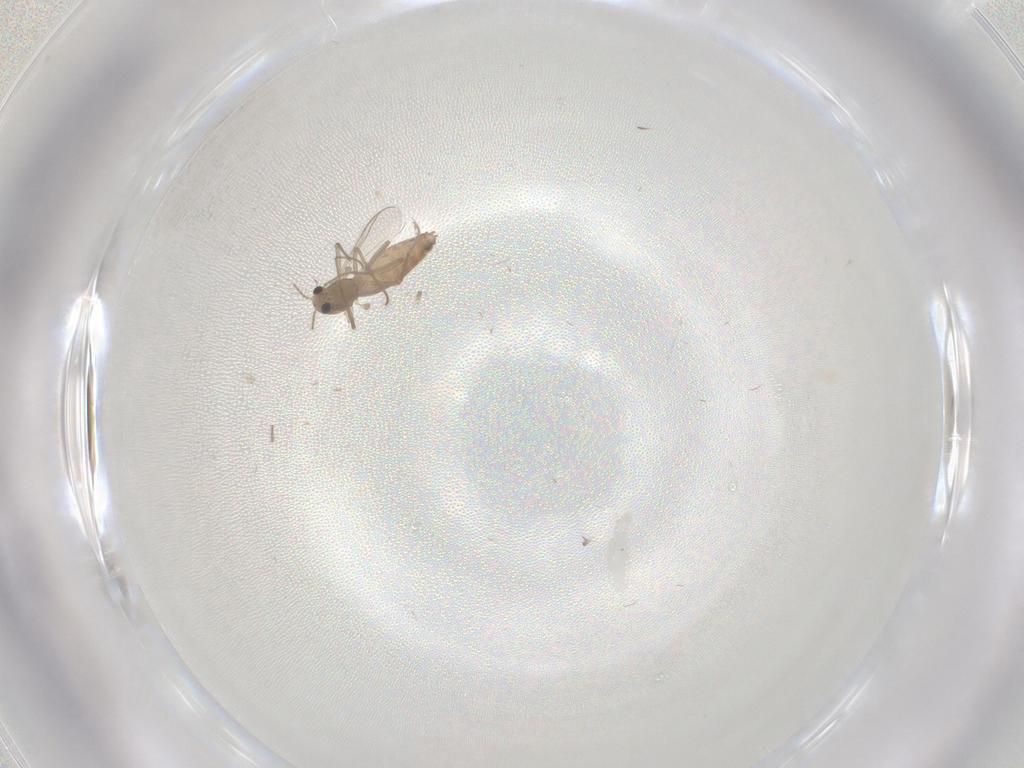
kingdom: Animalia
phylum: Arthropoda
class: Insecta
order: Diptera
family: Chironomidae
